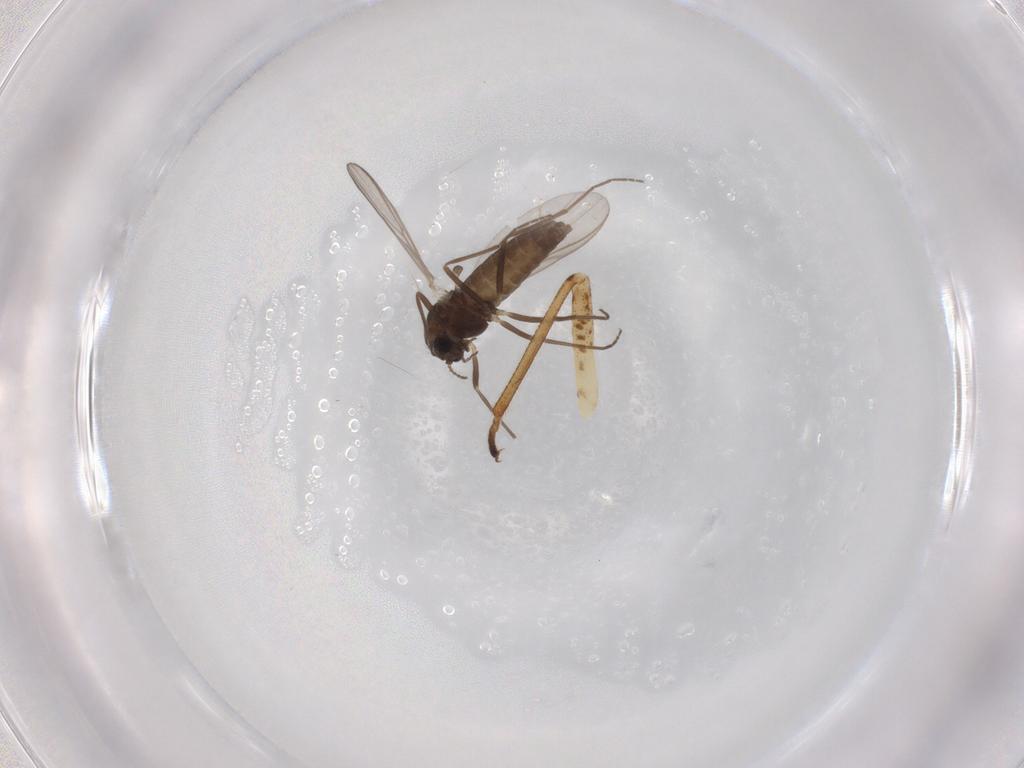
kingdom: Animalia
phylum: Arthropoda
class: Insecta
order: Diptera
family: Chironomidae
